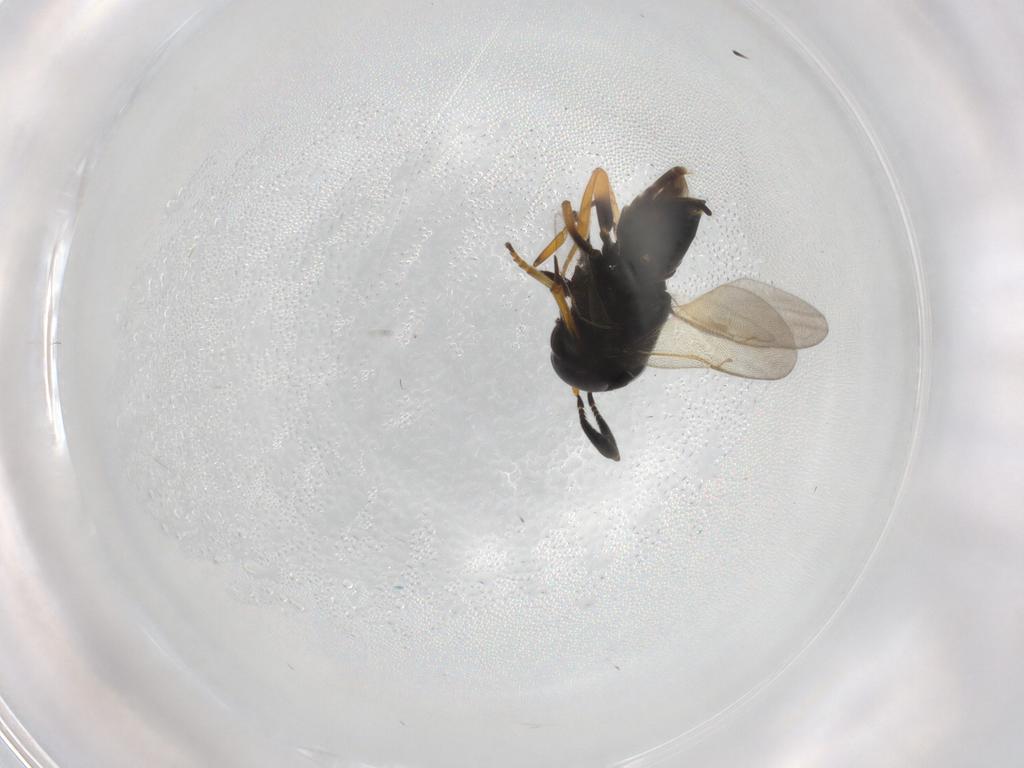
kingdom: Animalia
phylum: Arthropoda
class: Insecta
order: Hymenoptera
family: Encyrtidae
